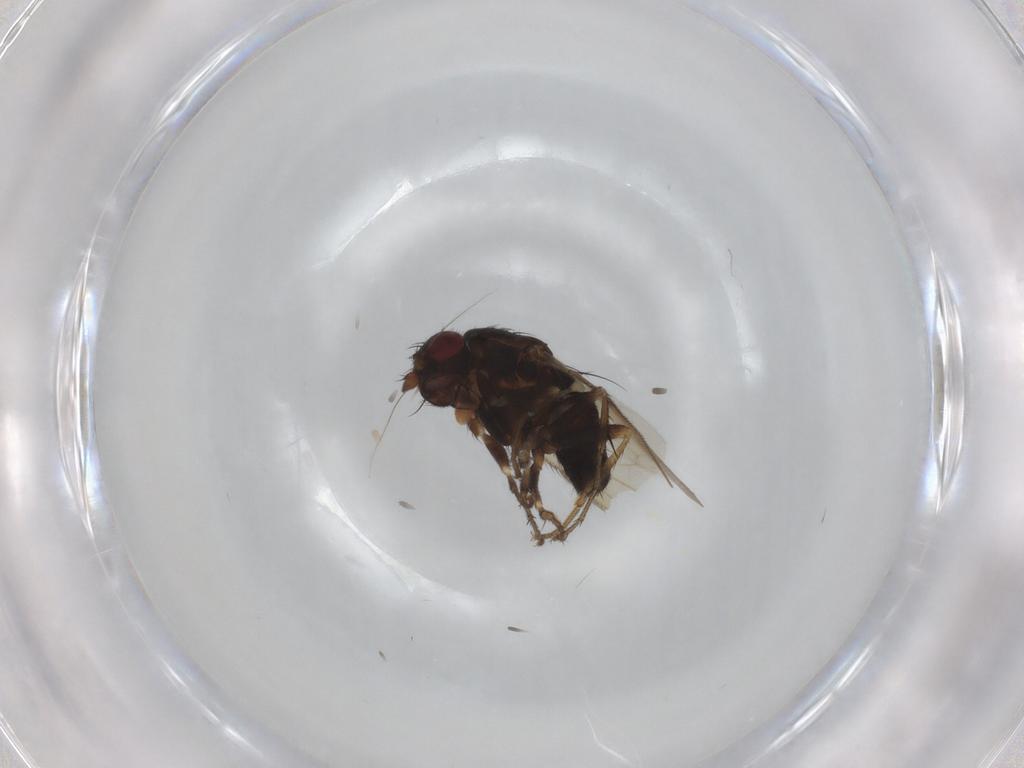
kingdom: Animalia
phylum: Arthropoda
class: Insecta
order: Diptera
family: Sphaeroceridae
